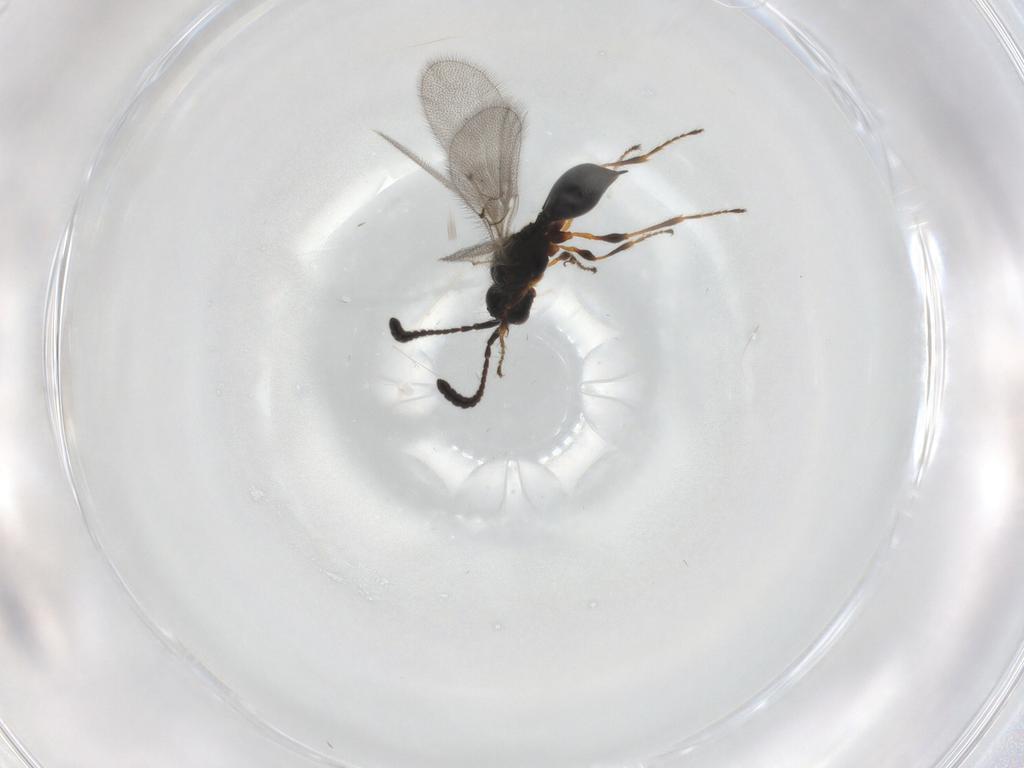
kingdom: Animalia
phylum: Arthropoda
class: Insecta
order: Hymenoptera
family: Diapriidae
